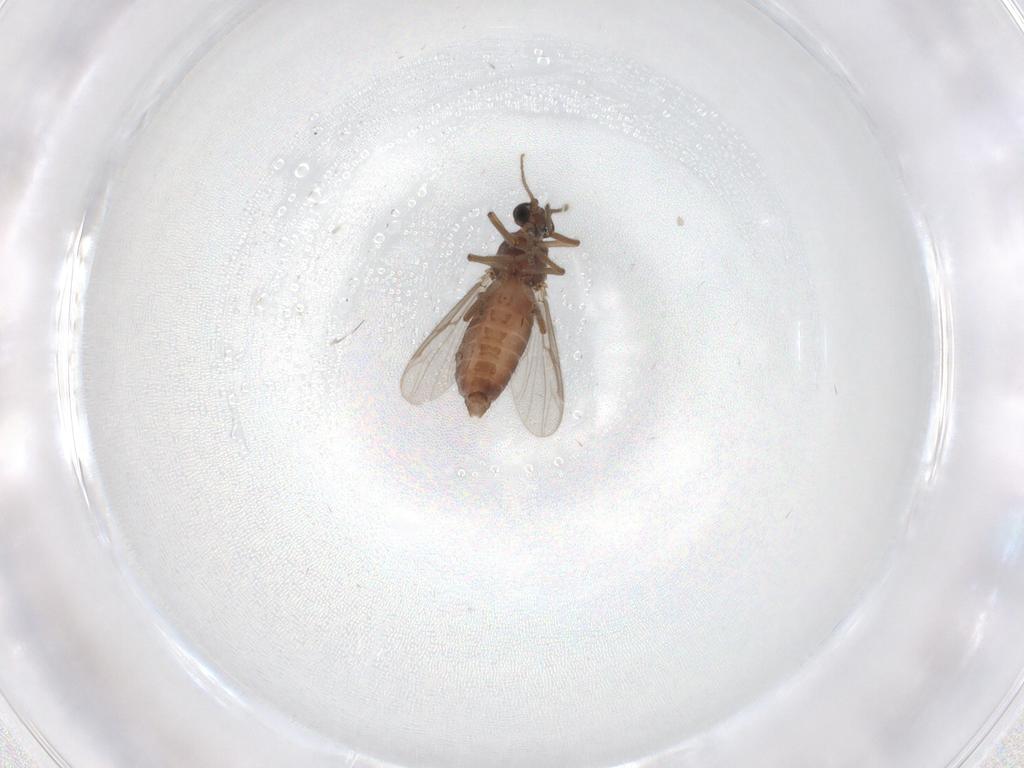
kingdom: Animalia
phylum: Arthropoda
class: Insecta
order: Diptera
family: Ceratopogonidae
